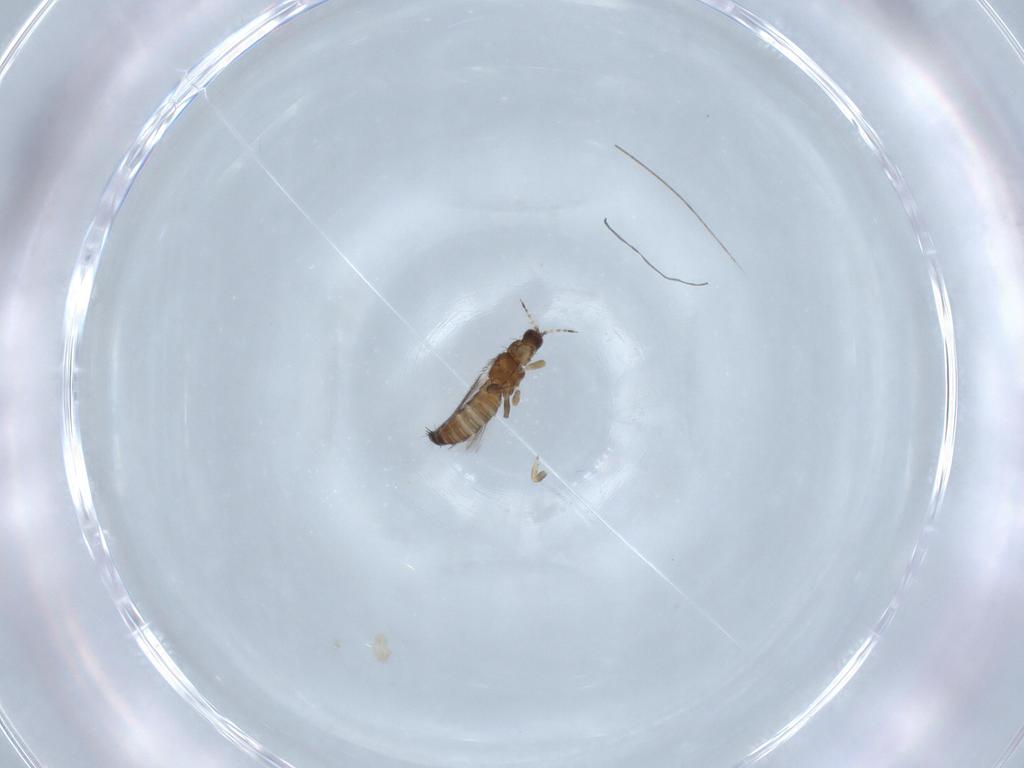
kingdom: Animalia
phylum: Arthropoda
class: Insecta
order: Thysanoptera
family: Thripidae
